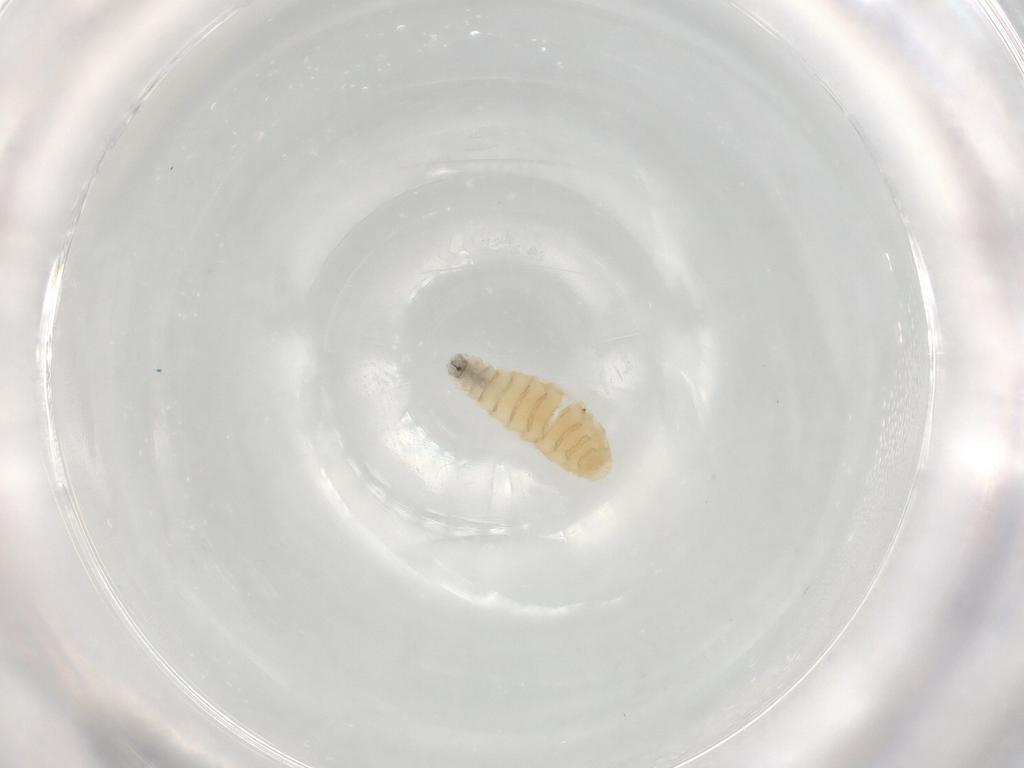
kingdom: Animalia
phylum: Arthropoda
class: Insecta
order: Diptera
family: Sarcophagidae
